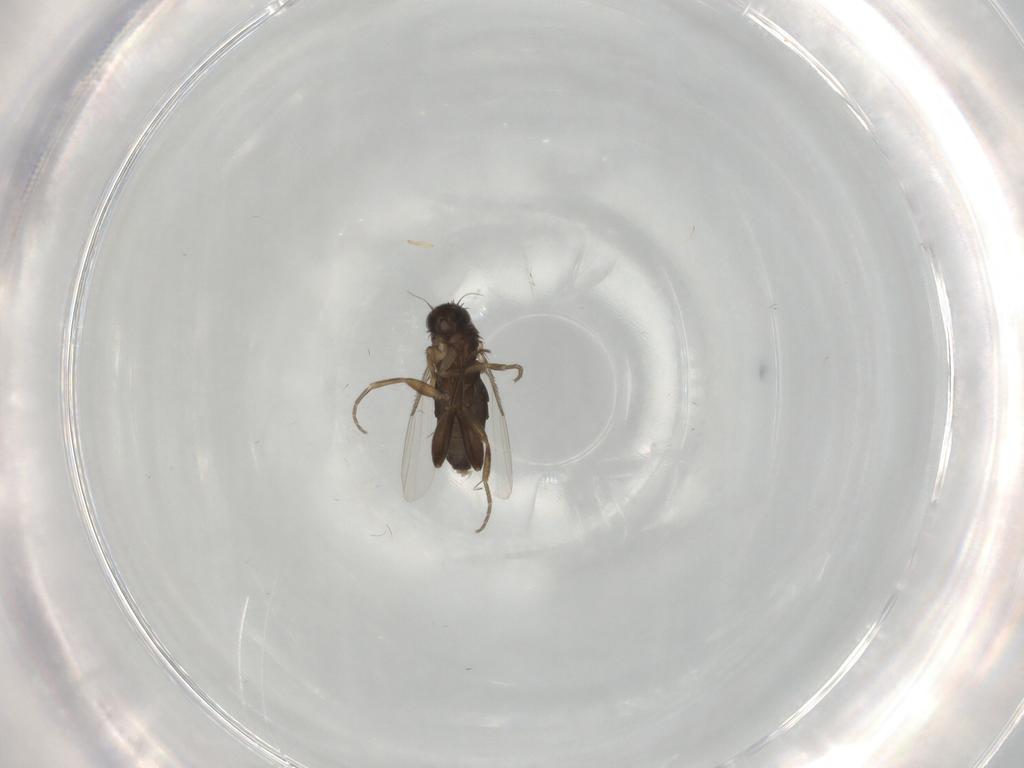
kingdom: Animalia
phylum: Arthropoda
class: Insecta
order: Diptera
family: Phoridae
